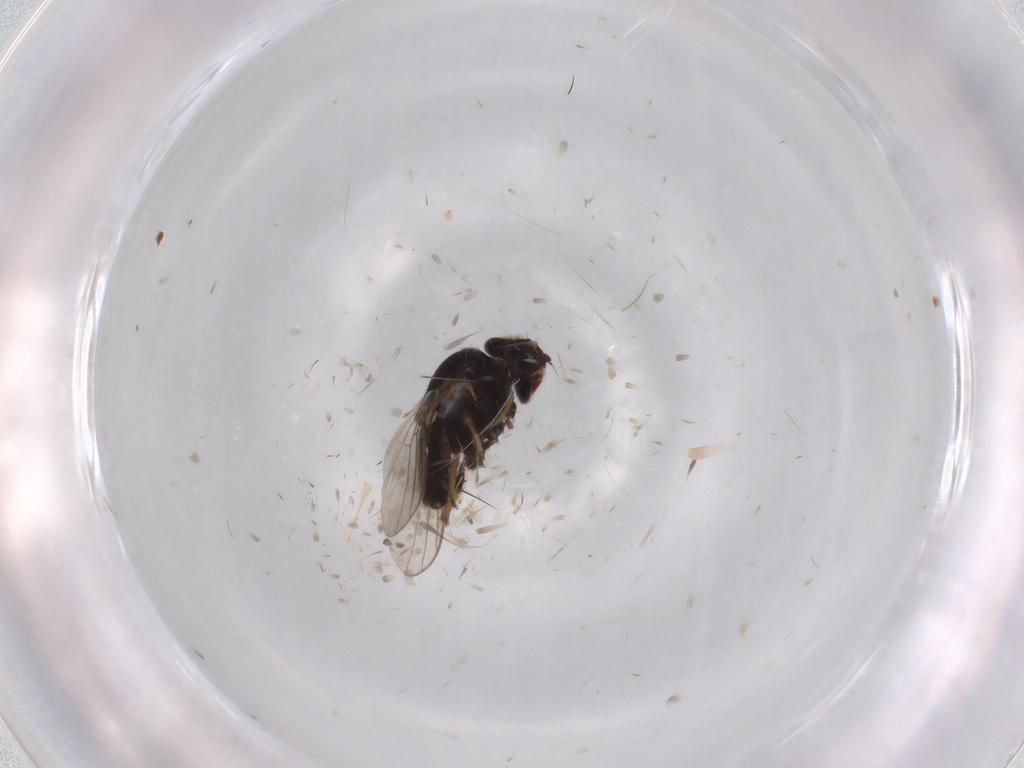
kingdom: Animalia
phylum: Arthropoda
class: Insecta
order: Diptera
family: Chloropidae
